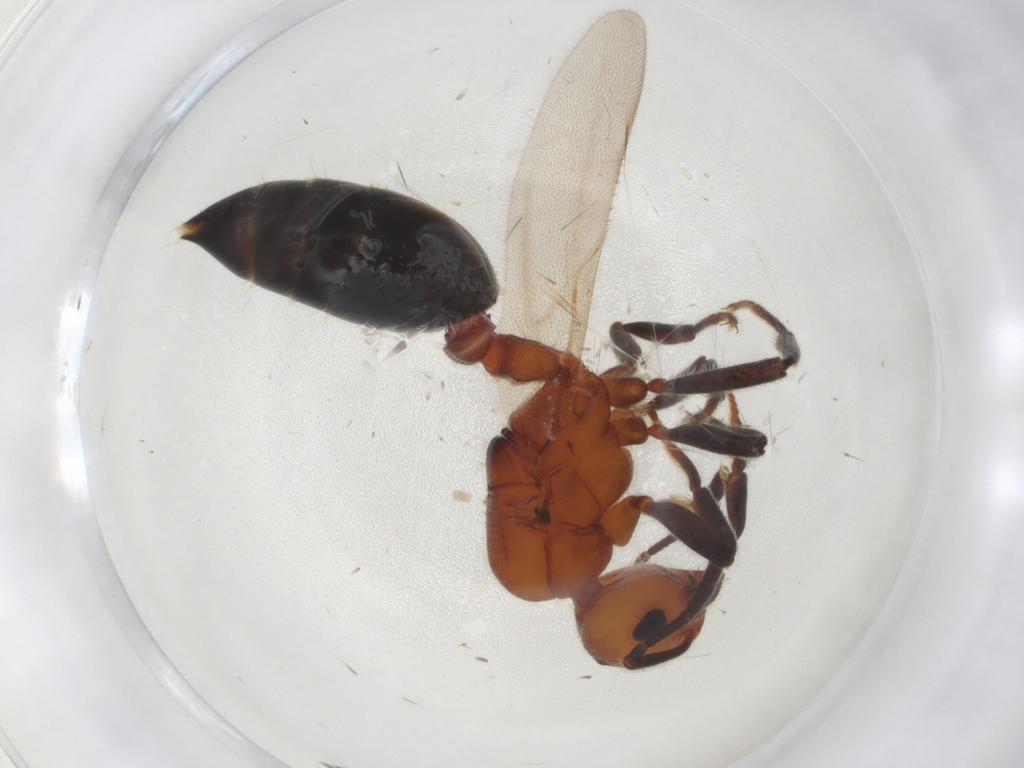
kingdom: Animalia
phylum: Arthropoda
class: Insecta
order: Hymenoptera
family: Formicidae
